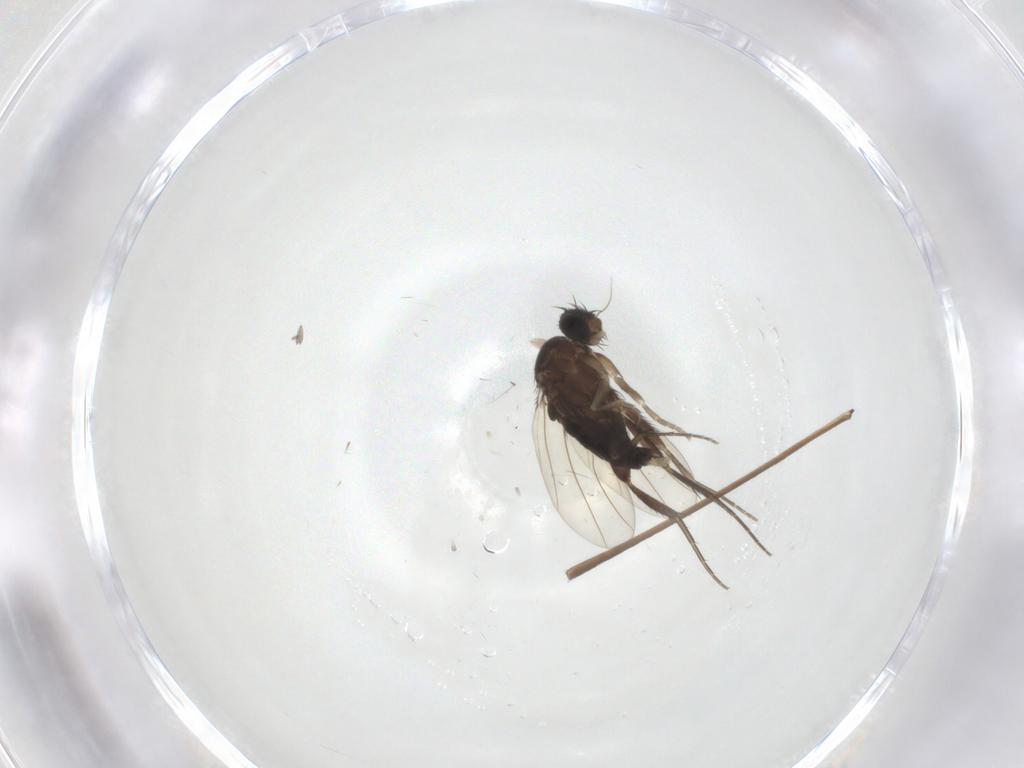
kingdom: Animalia
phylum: Arthropoda
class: Insecta
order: Diptera
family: Limoniidae
